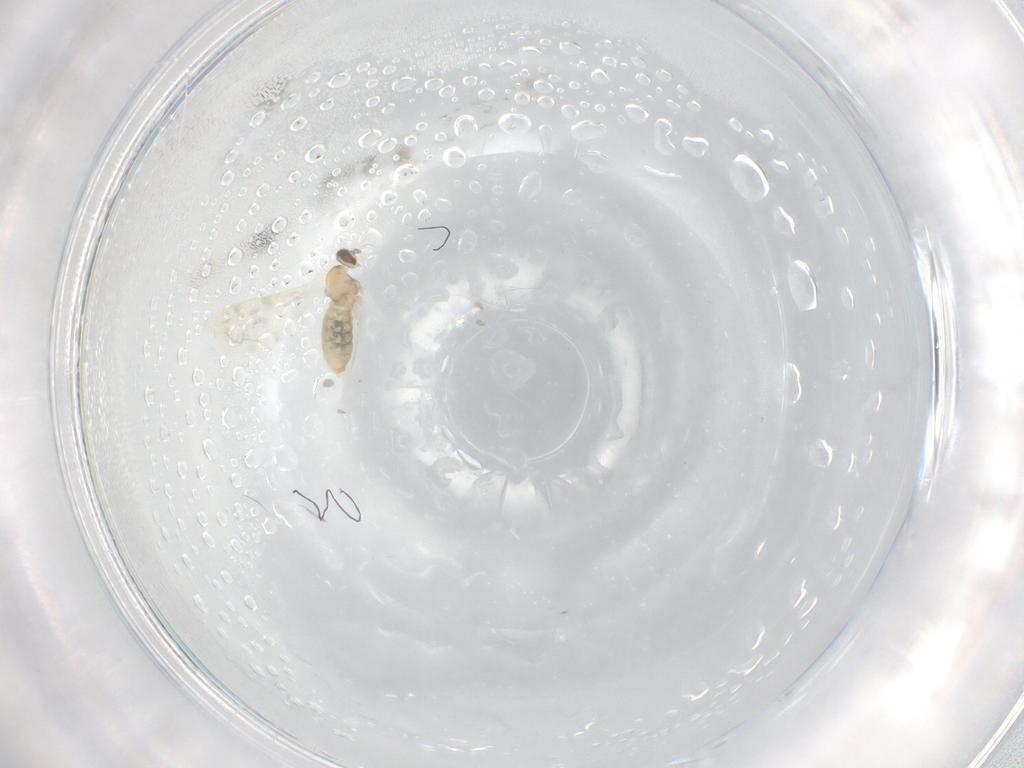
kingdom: Animalia
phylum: Arthropoda
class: Insecta
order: Diptera
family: Cecidomyiidae
